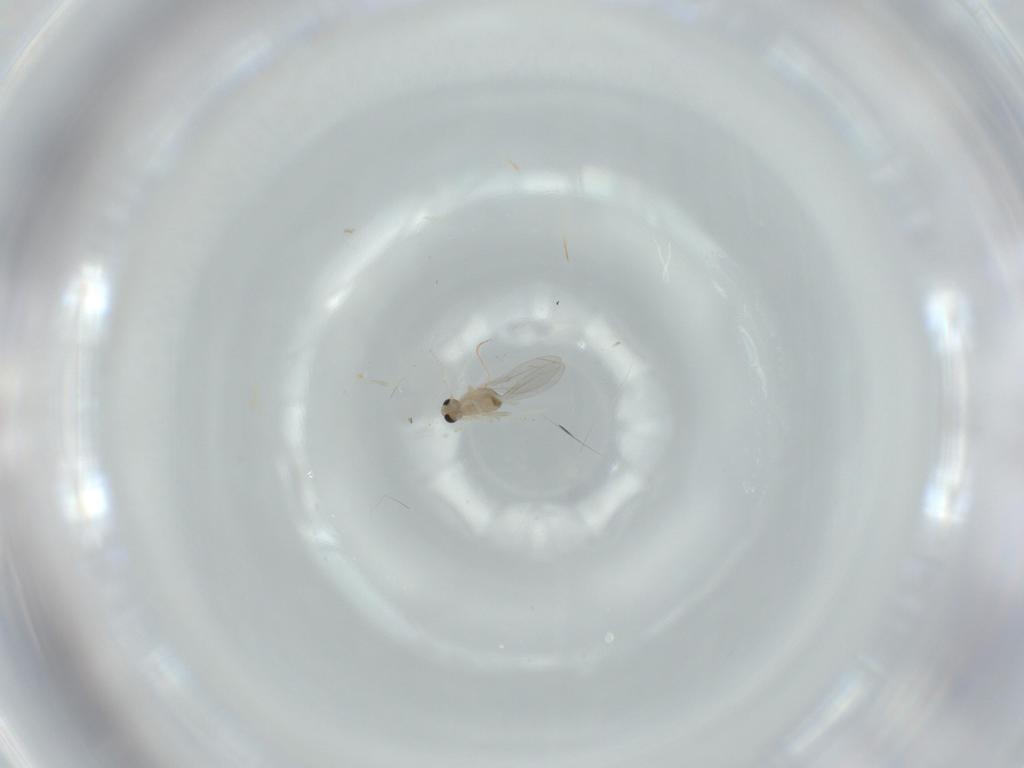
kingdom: Animalia
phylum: Arthropoda
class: Insecta
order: Diptera
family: Cecidomyiidae
